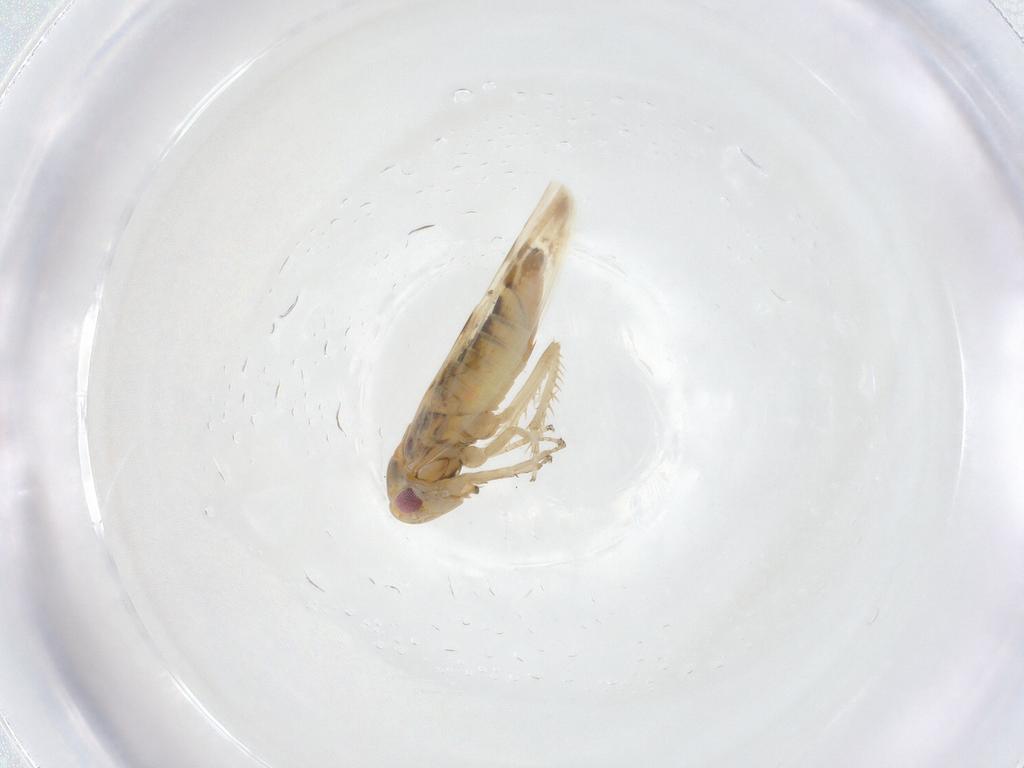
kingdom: Animalia
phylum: Arthropoda
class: Insecta
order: Hemiptera
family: Cicadellidae
